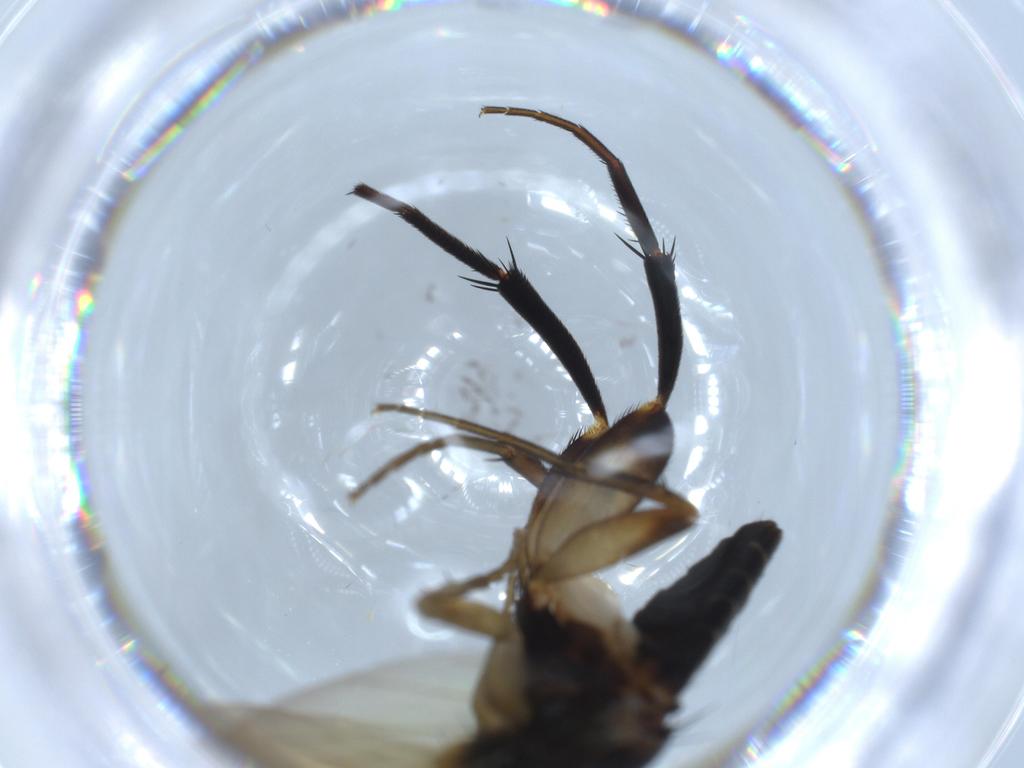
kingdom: Animalia
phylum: Arthropoda
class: Insecta
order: Diptera
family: Phoridae
